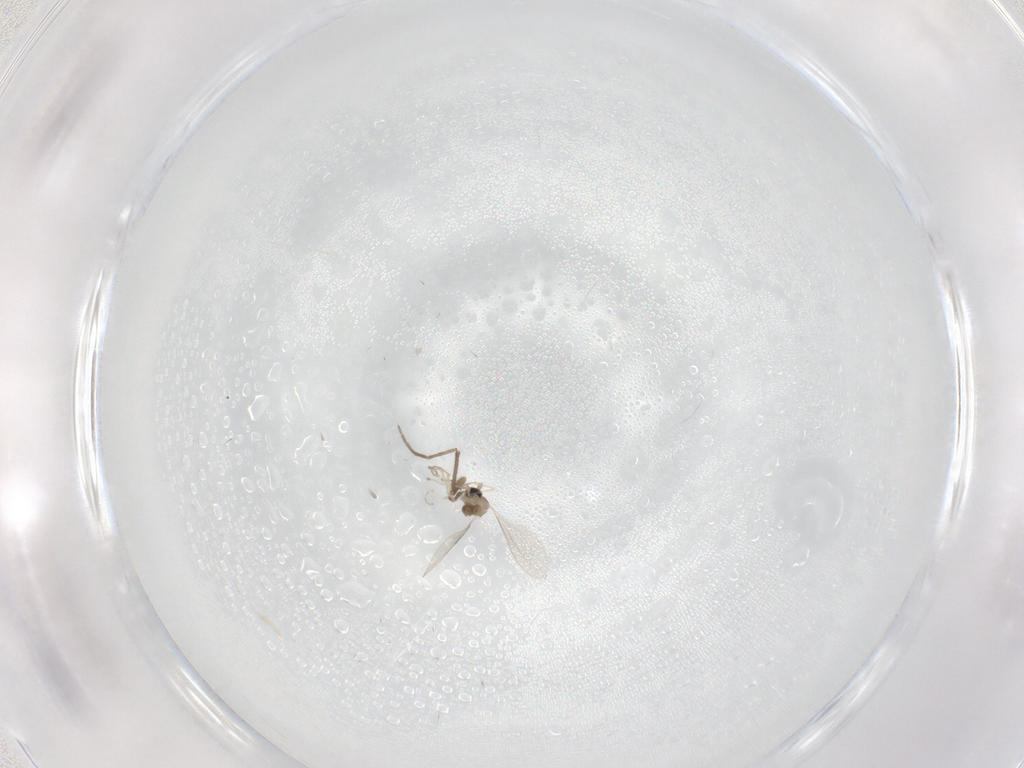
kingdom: Animalia
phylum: Arthropoda
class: Insecta
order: Diptera
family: Cecidomyiidae
